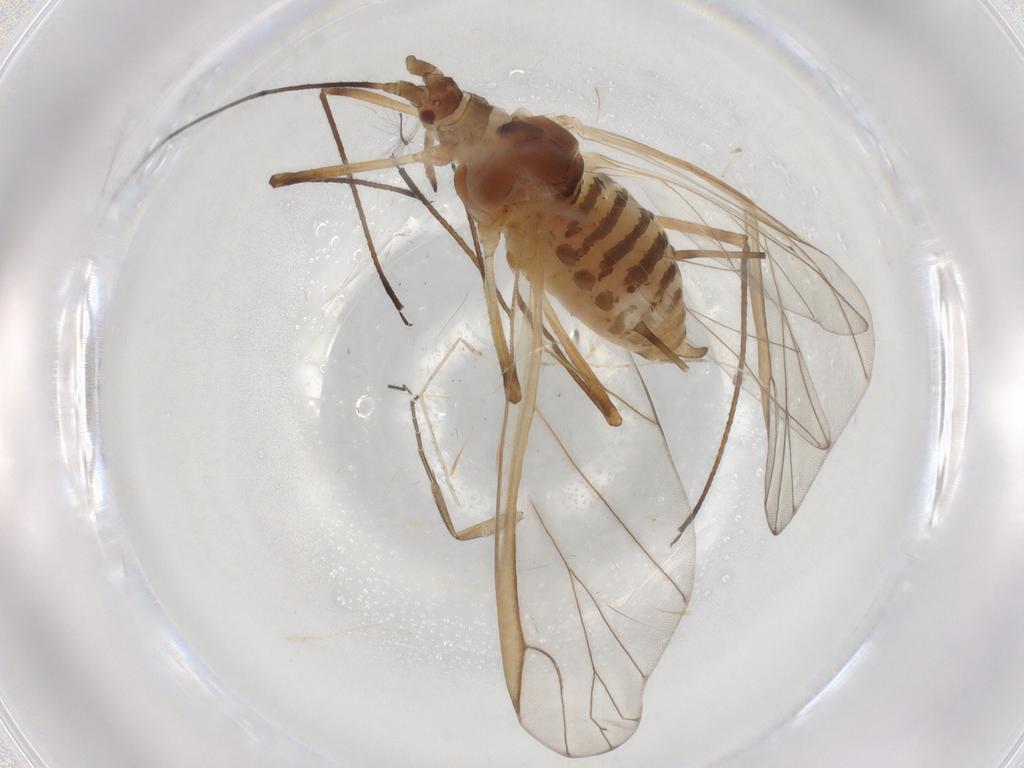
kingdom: Animalia
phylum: Arthropoda
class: Insecta
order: Hemiptera
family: Aphididae
